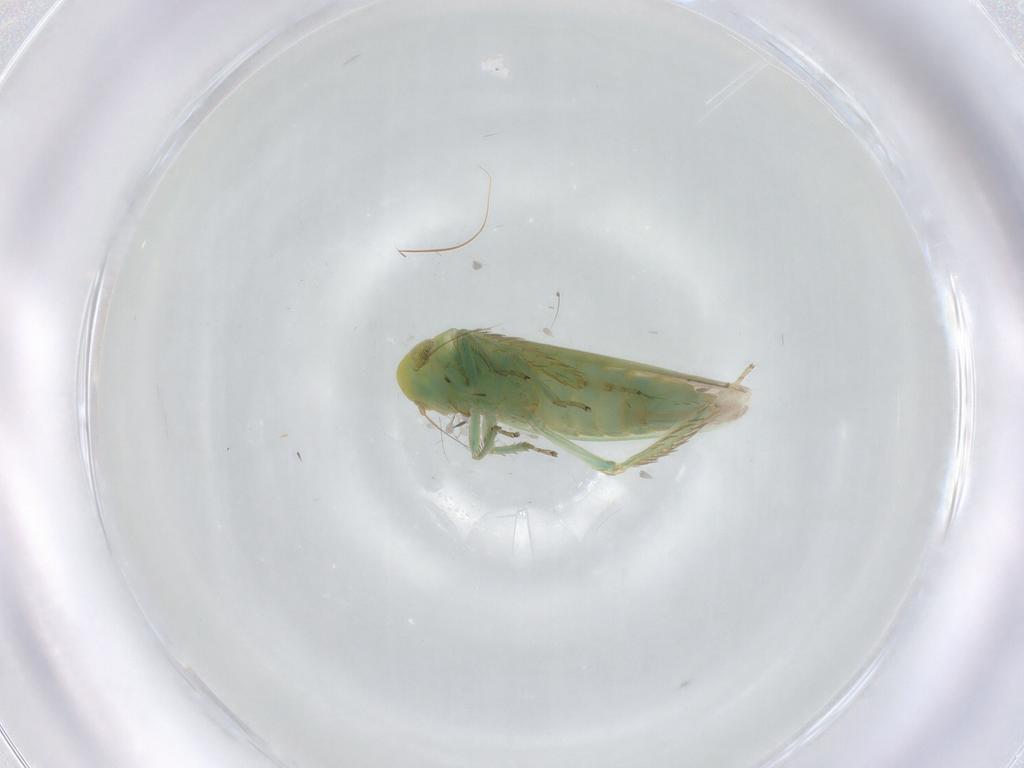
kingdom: Animalia
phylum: Arthropoda
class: Insecta
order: Hemiptera
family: Cicadellidae
